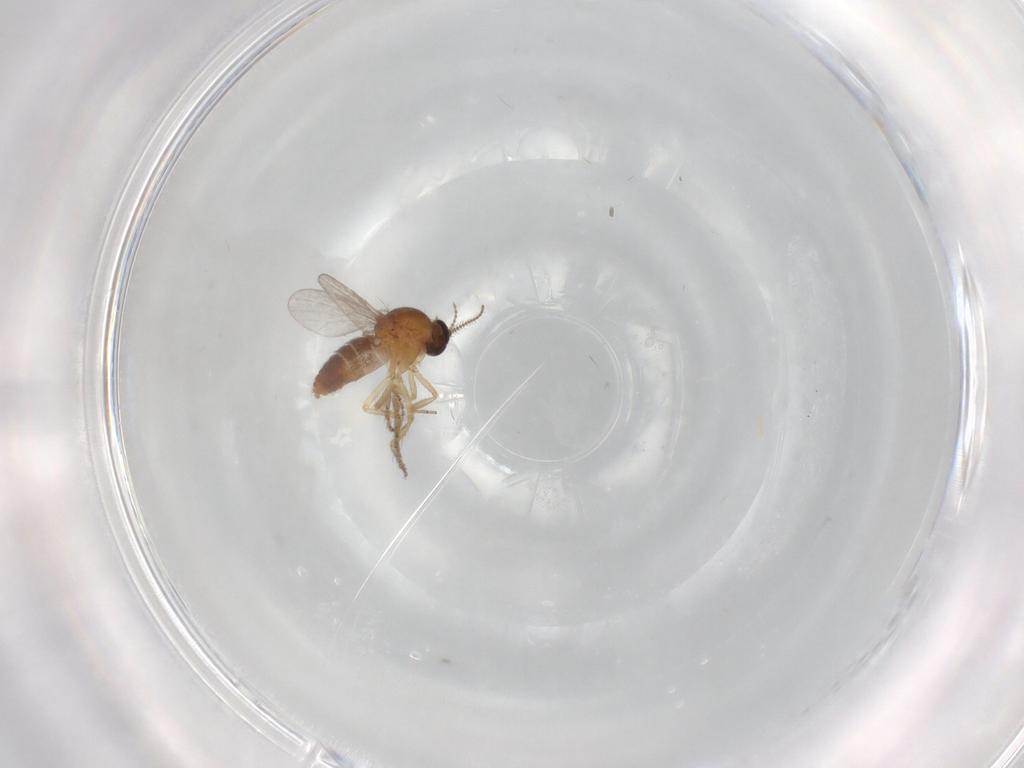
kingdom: Animalia
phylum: Arthropoda
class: Insecta
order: Diptera
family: Ceratopogonidae
